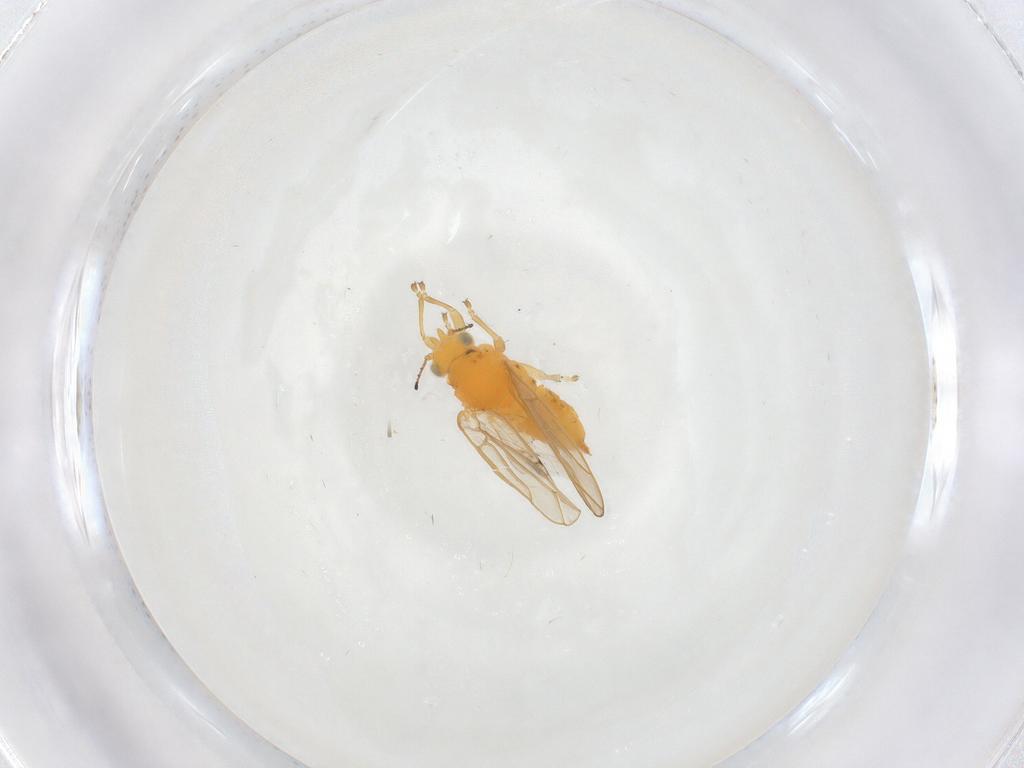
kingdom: Animalia
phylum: Arthropoda
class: Insecta
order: Hemiptera
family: Triozidae
